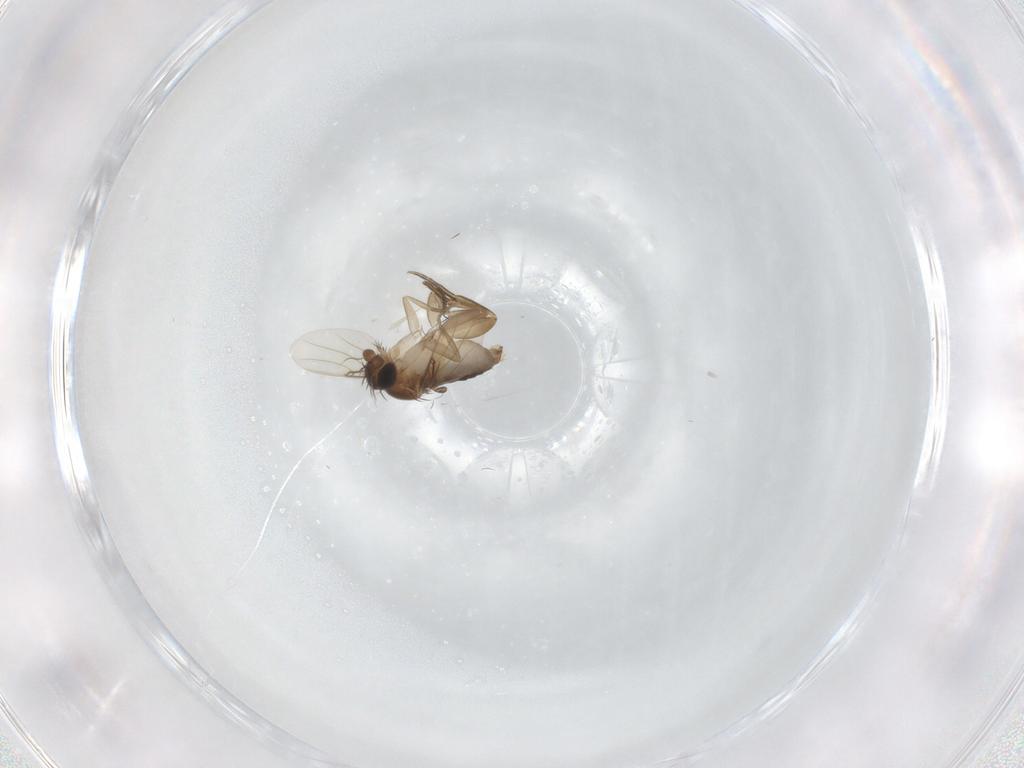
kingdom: Animalia
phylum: Arthropoda
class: Insecta
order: Diptera
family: Phoridae
